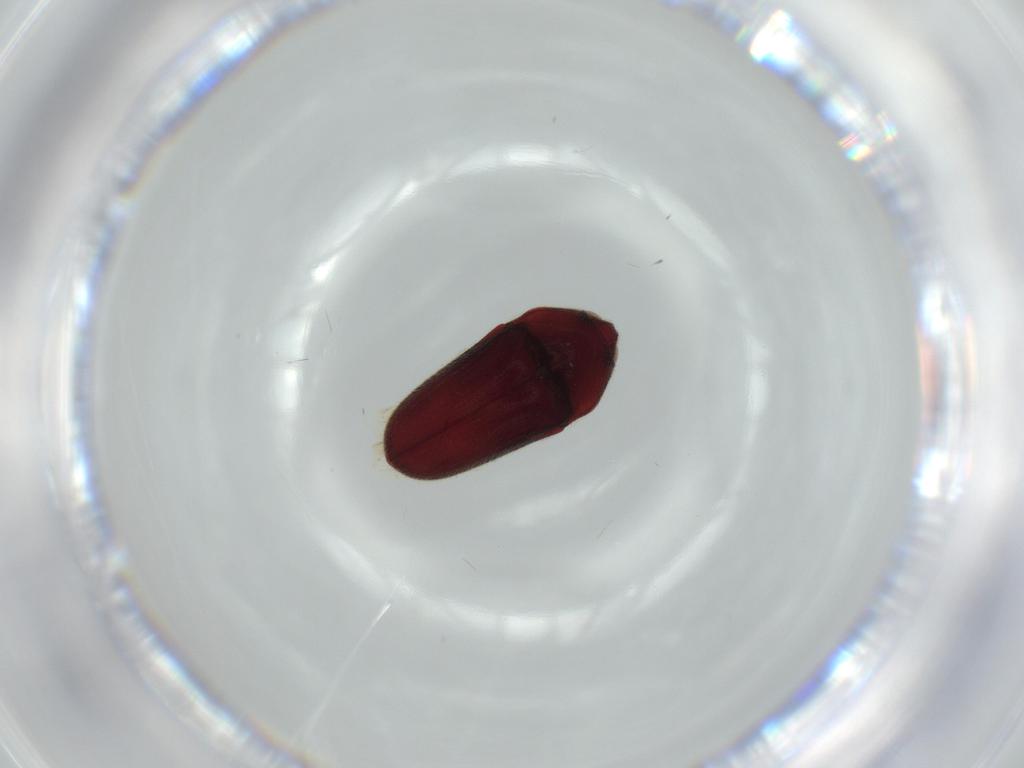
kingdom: Animalia
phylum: Arthropoda
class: Insecta
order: Coleoptera
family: Throscidae
